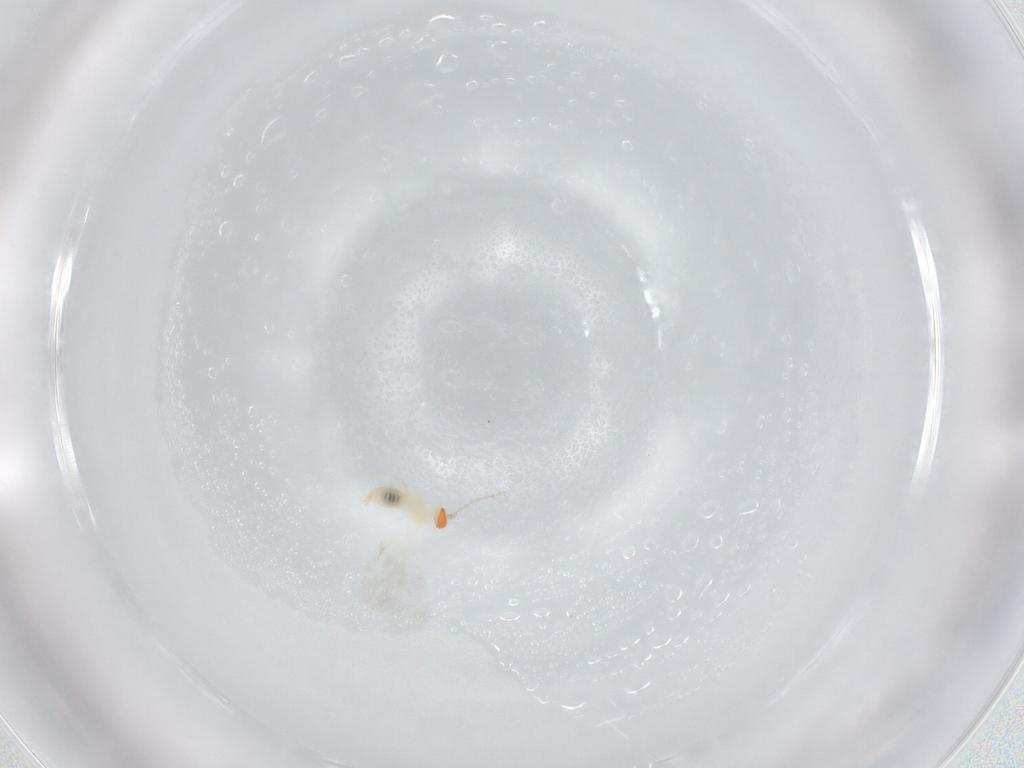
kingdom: Animalia
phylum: Arthropoda
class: Insecta
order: Diptera
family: Cecidomyiidae
